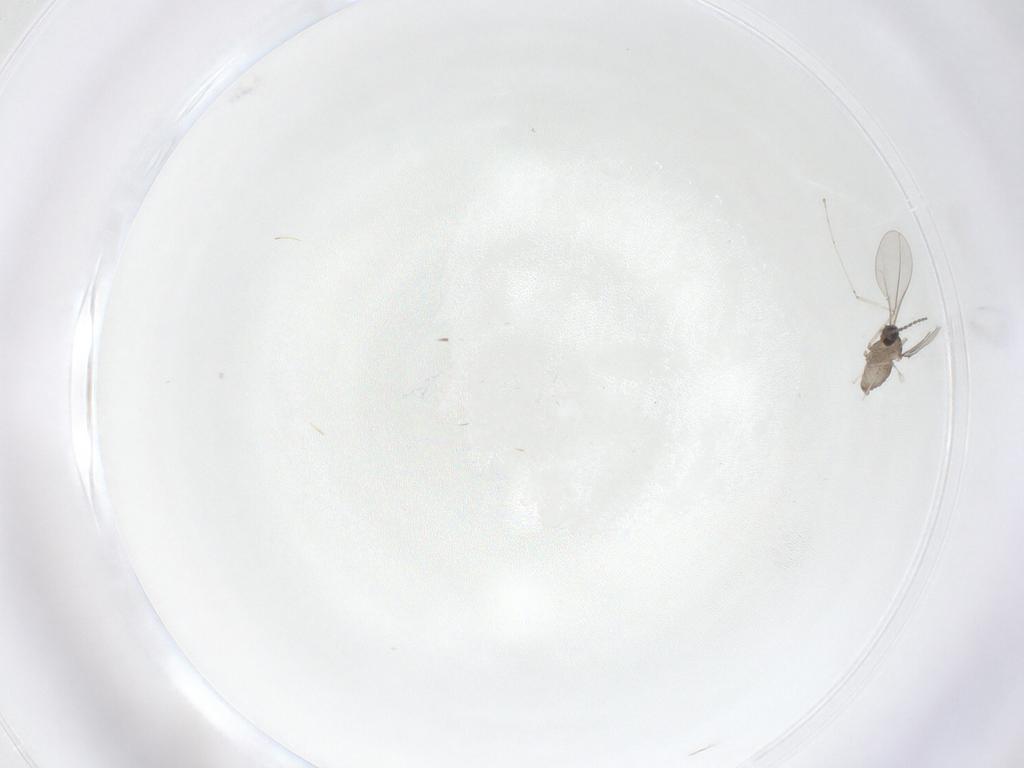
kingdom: Animalia
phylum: Arthropoda
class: Insecta
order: Diptera
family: Cecidomyiidae
